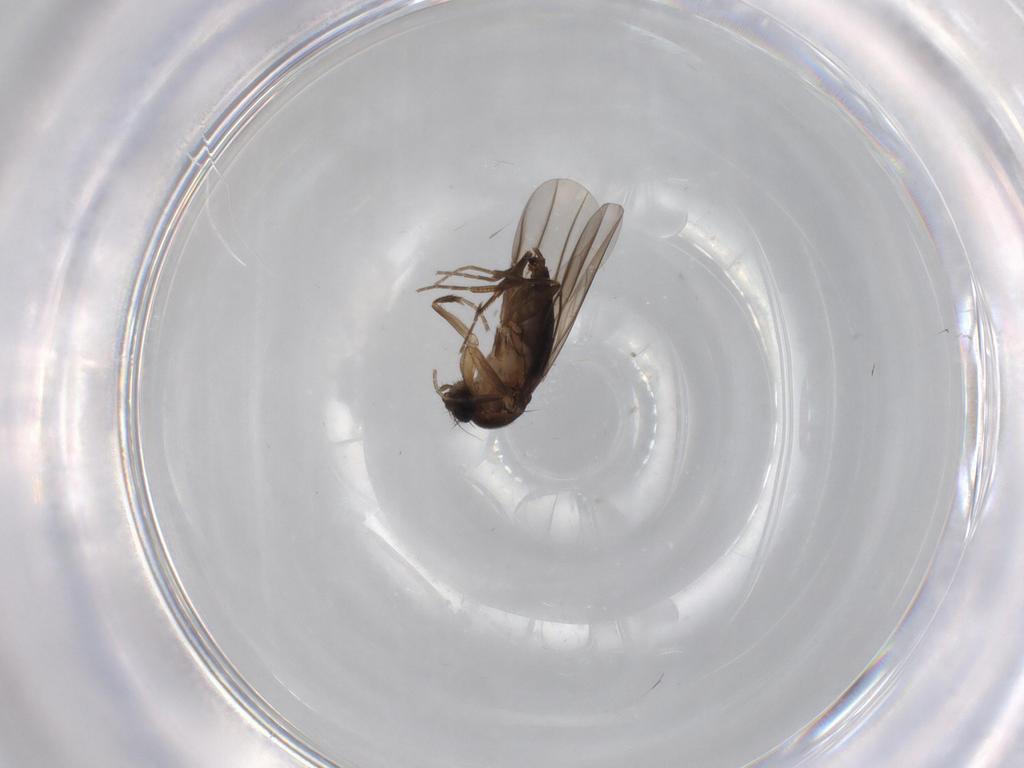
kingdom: Animalia
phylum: Arthropoda
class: Insecta
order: Diptera
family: Phoridae
